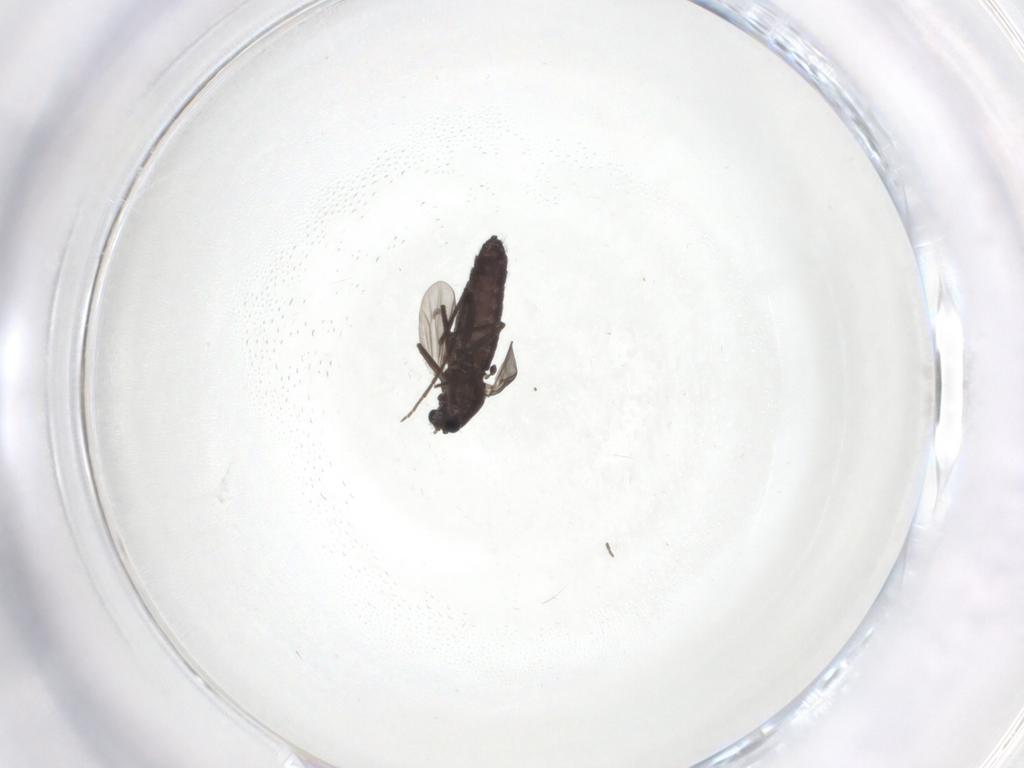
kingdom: Animalia
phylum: Arthropoda
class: Insecta
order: Diptera
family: Chironomidae
